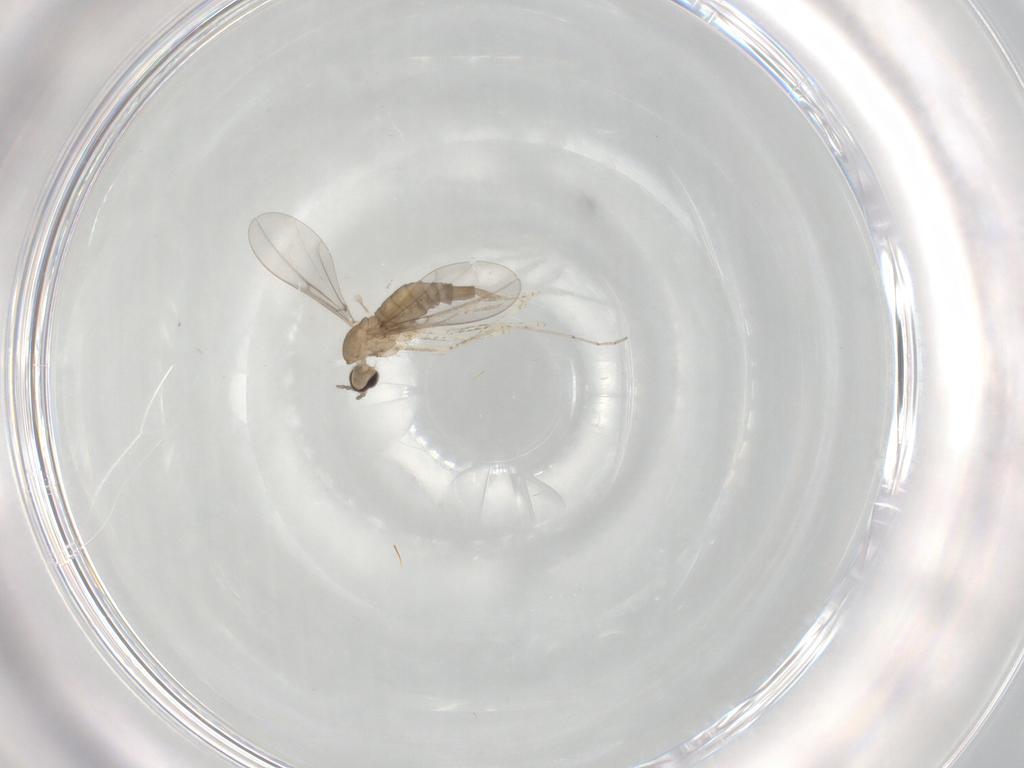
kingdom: Animalia
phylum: Arthropoda
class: Insecta
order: Diptera
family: Cecidomyiidae
